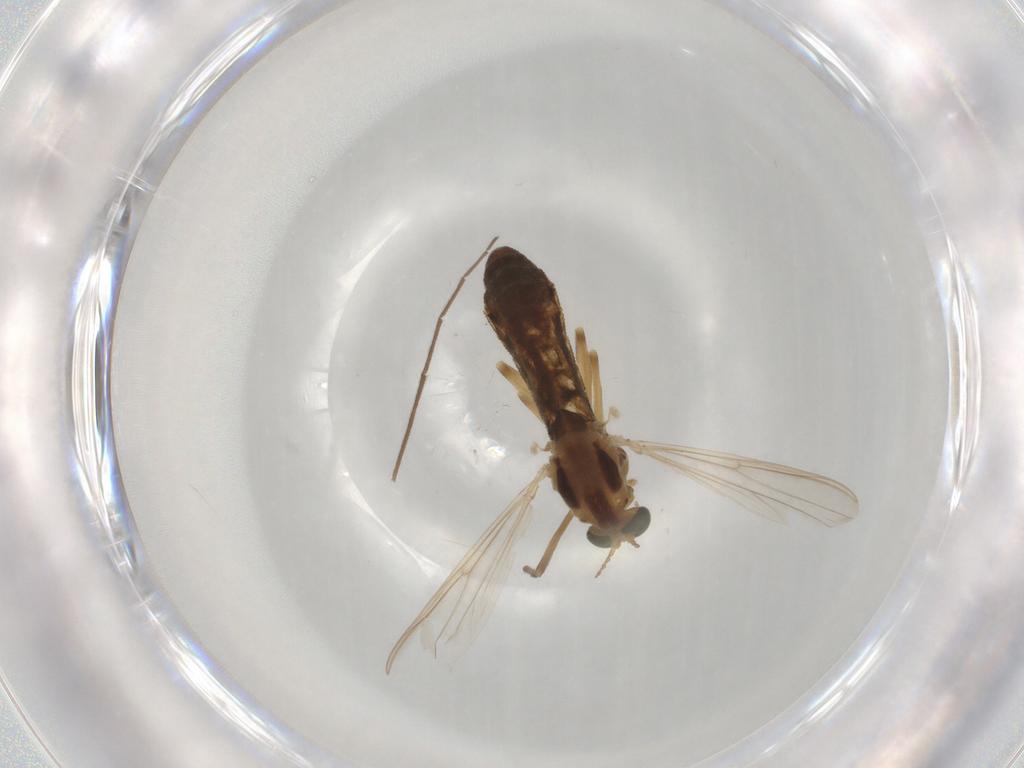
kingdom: Animalia
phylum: Arthropoda
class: Insecta
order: Diptera
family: Chironomidae
